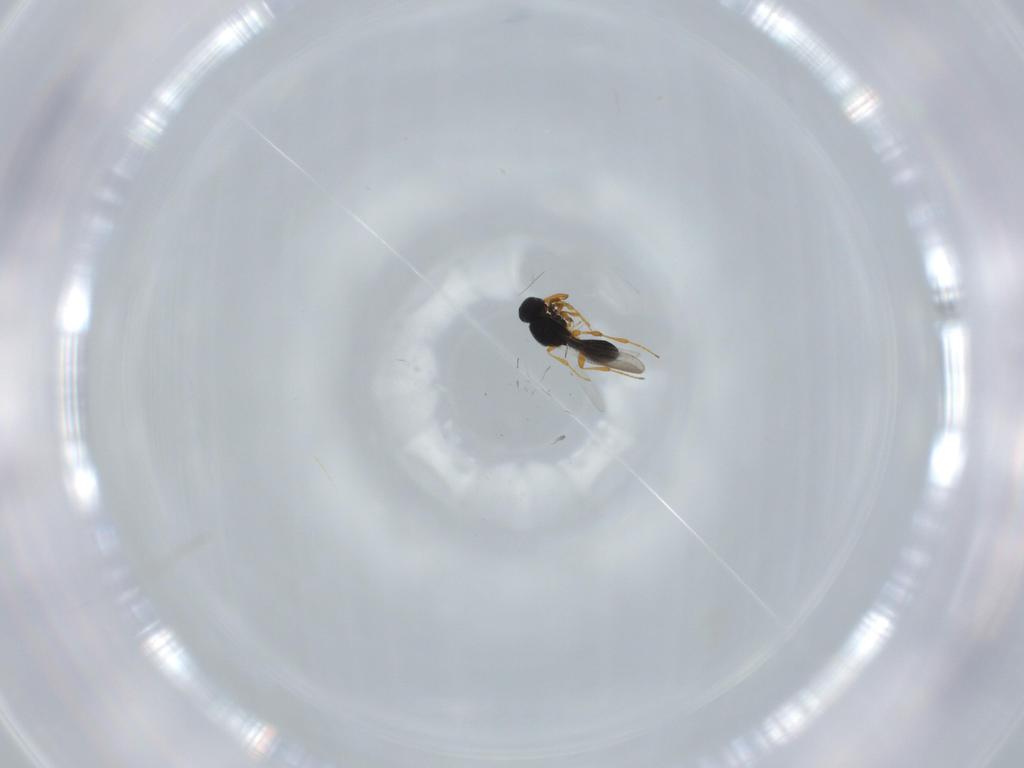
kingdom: Animalia
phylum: Arthropoda
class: Insecta
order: Hymenoptera
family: Platygastridae
